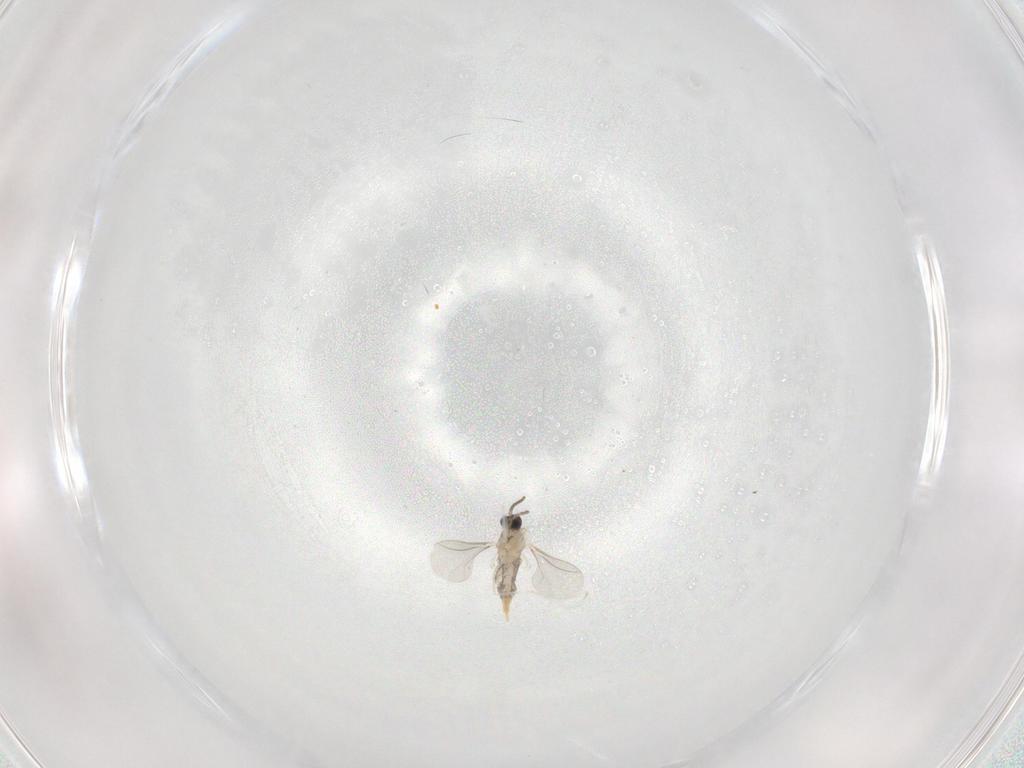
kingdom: Animalia
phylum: Arthropoda
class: Insecta
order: Diptera
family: Cecidomyiidae
